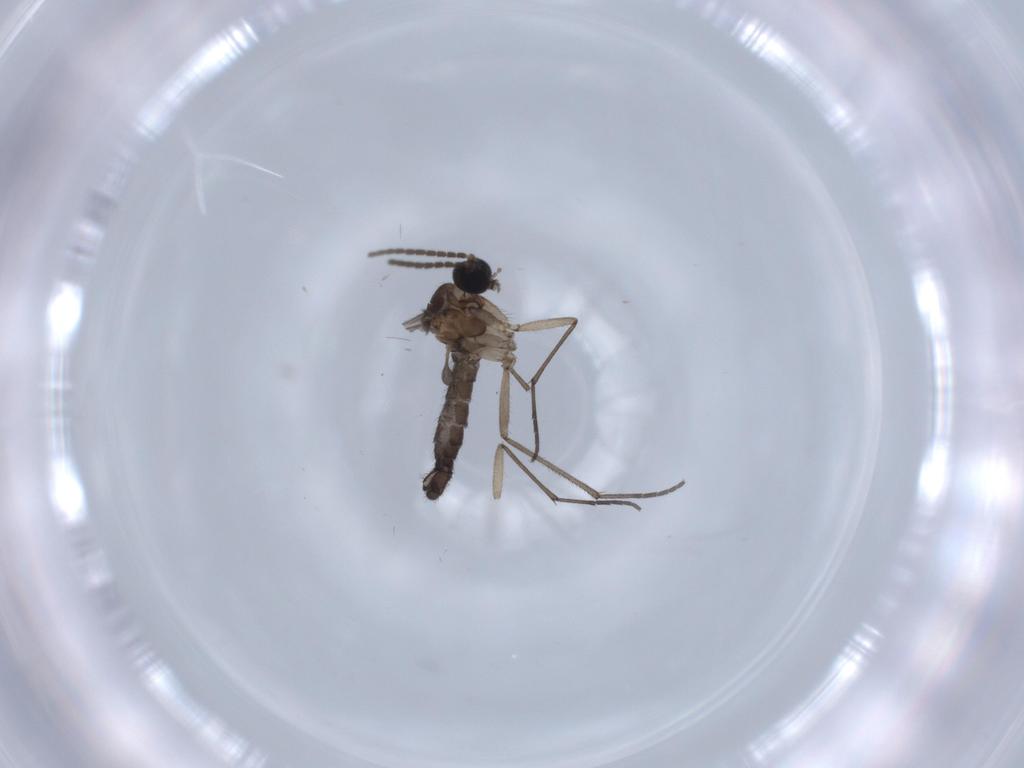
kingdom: Animalia
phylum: Arthropoda
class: Insecta
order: Diptera
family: Sciaridae
